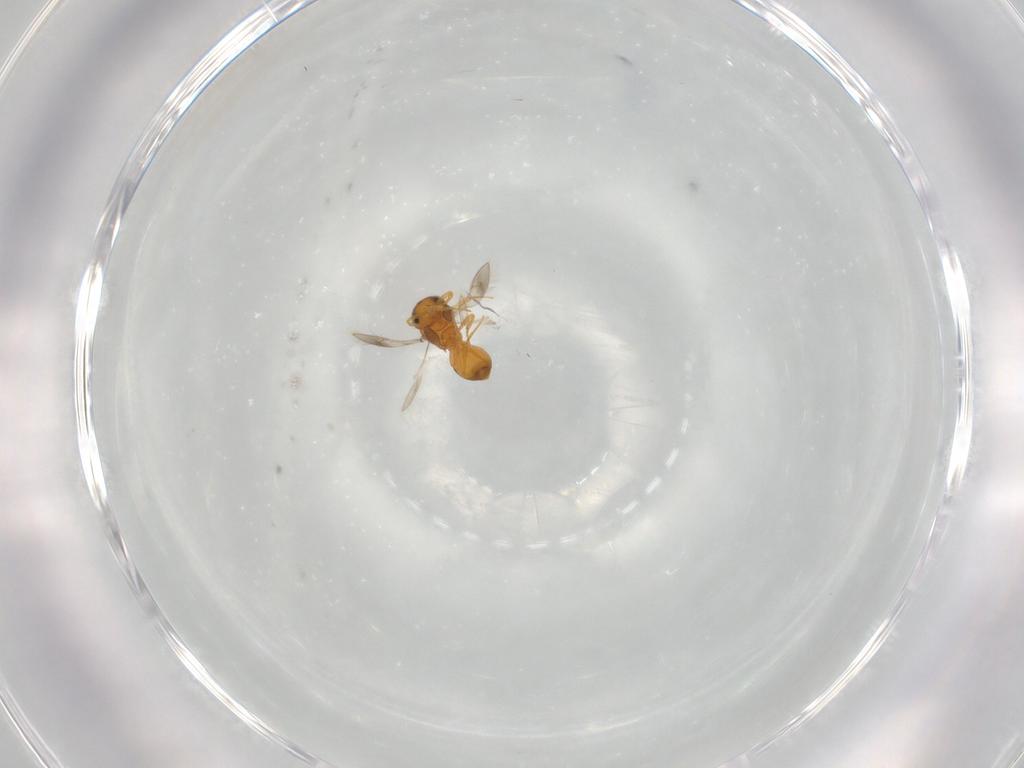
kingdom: Animalia
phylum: Arthropoda
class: Insecta
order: Hymenoptera
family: Scelionidae
